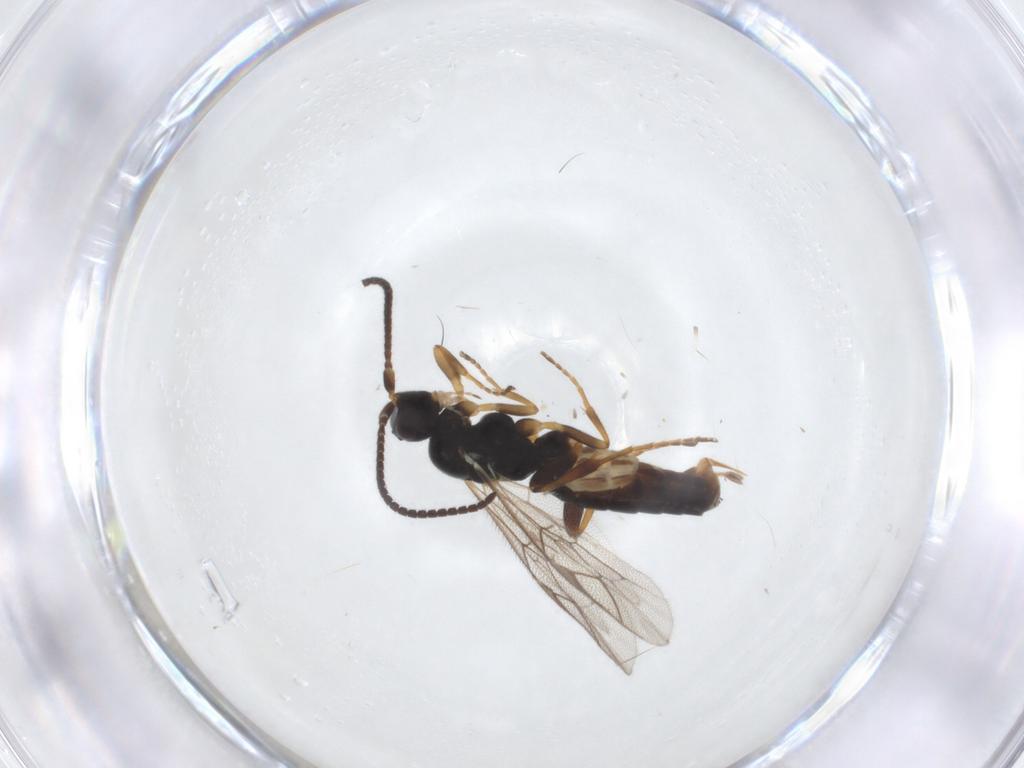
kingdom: Animalia
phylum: Arthropoda
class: Insecta
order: Hymenoptera
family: Ichneumonidae
